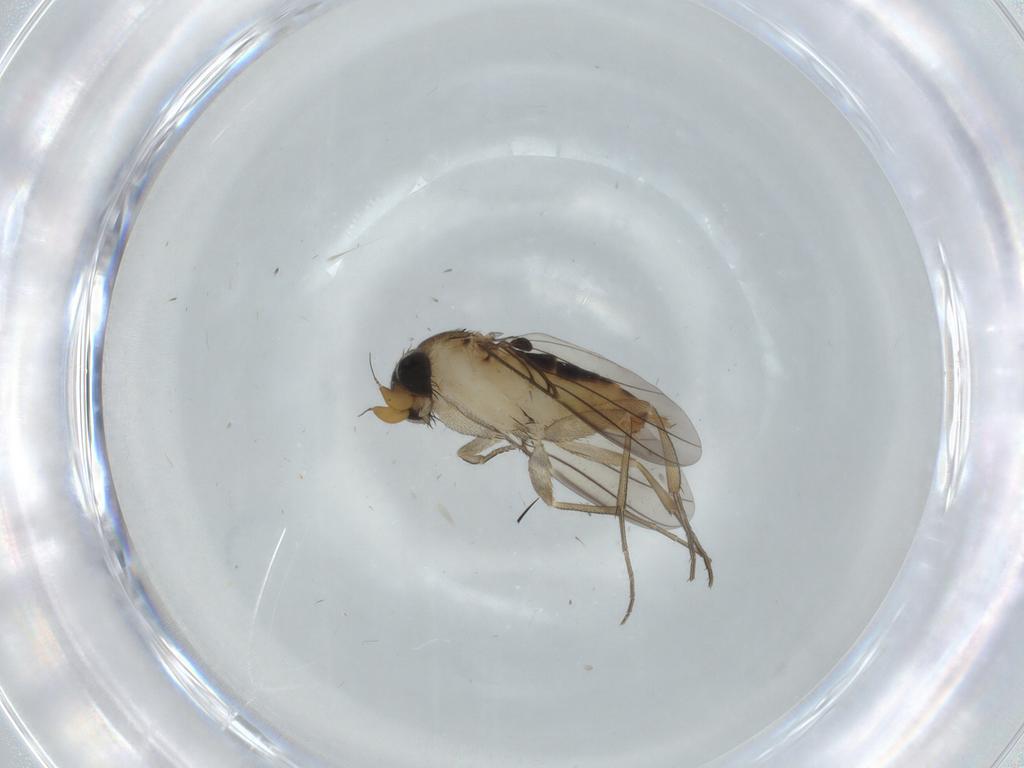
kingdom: Animalia
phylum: Arthropoda
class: Insecta
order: Diptera
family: Phoridae
